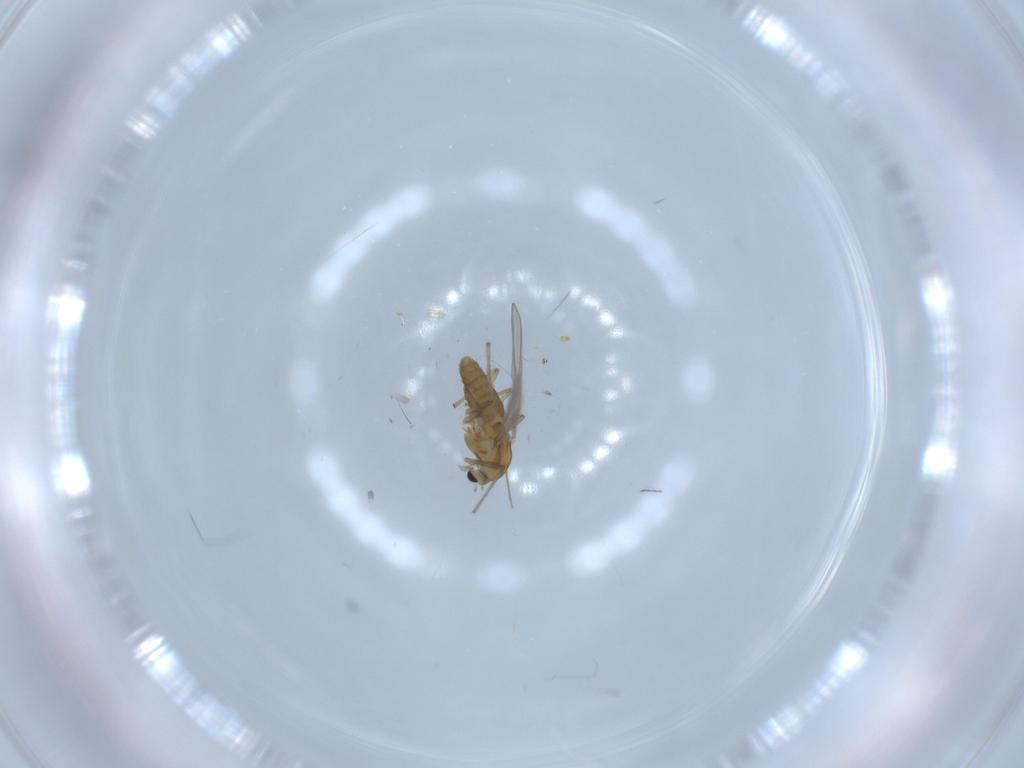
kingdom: Animalia
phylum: Arthropoda
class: Insecta
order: Diptera
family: Chironomidae
